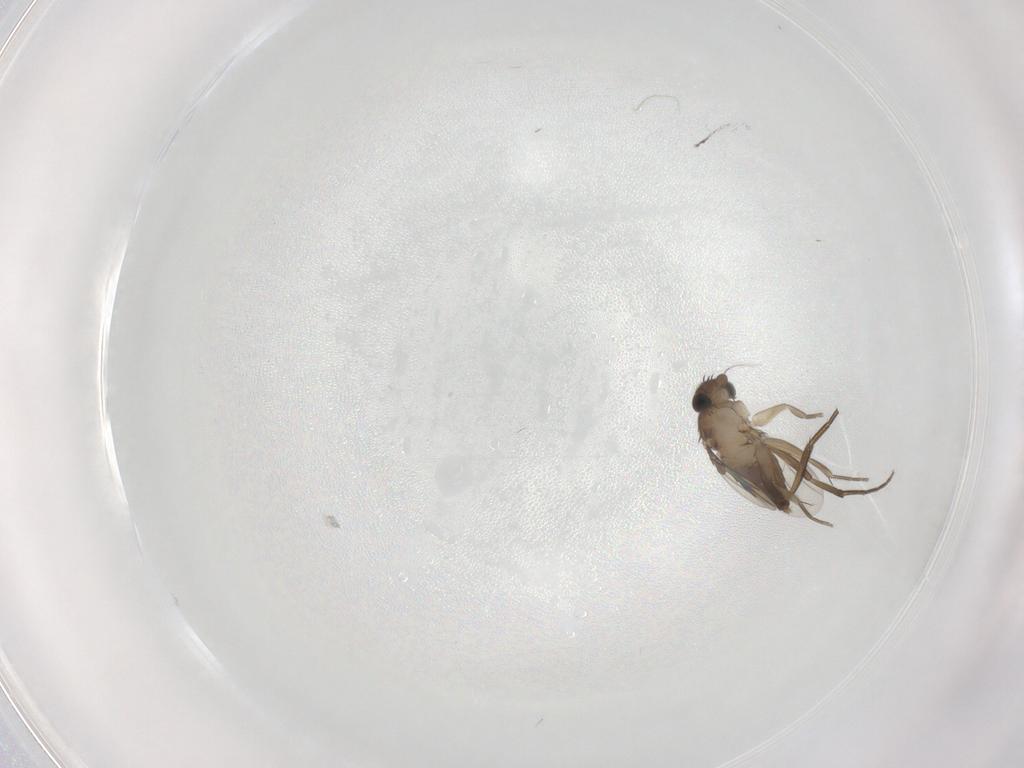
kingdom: Animalia
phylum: Arthropoda
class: Insecta
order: Diptera
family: Phoridae
